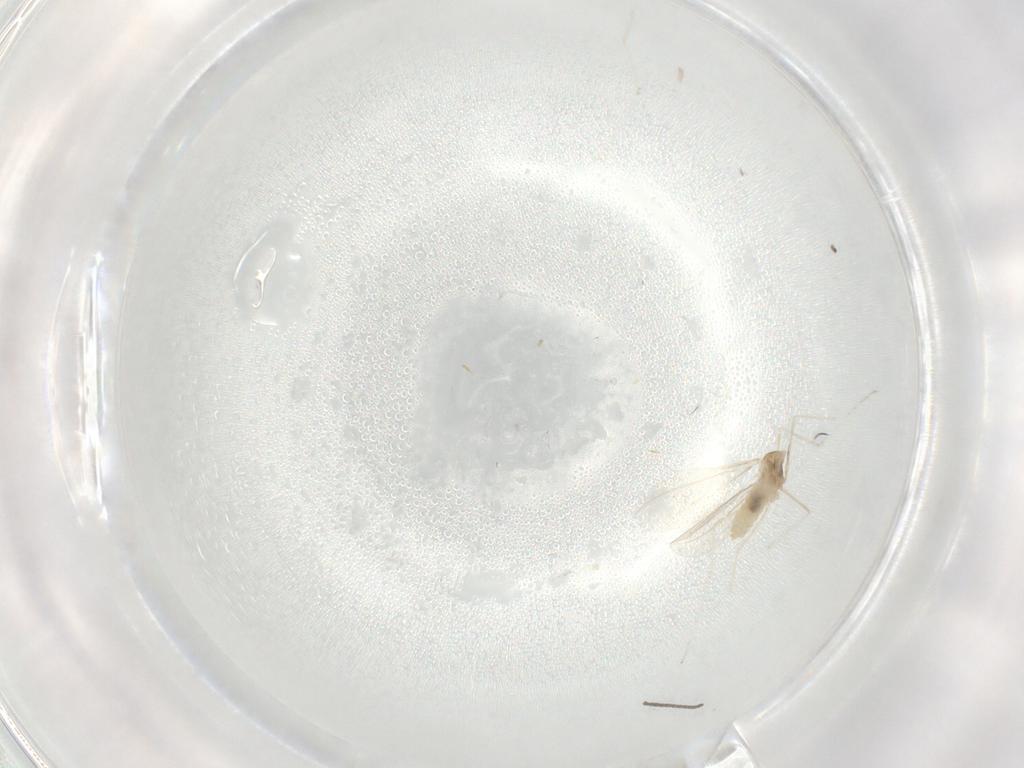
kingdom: Animalia
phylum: Arthropoda
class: Insecta
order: Diptera
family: Cecidomyiidae
